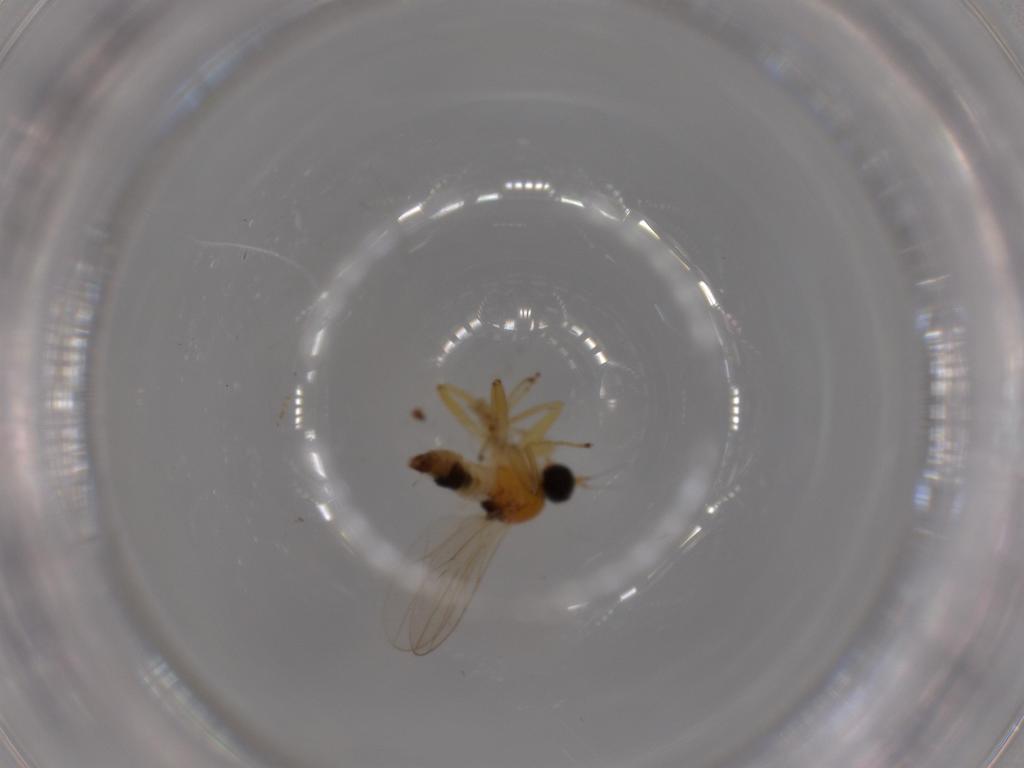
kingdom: Animalia
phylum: Arthropoda
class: Insecta
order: Diptera
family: Hybotidae
